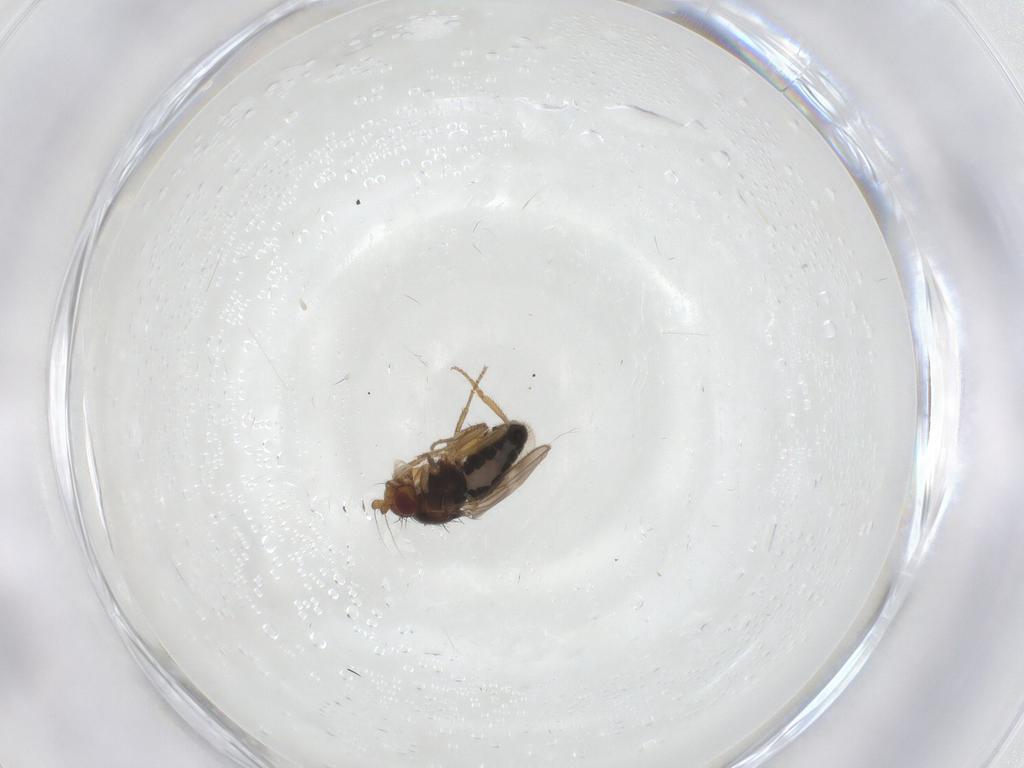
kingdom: Animalia
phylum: Arthropoda
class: Insecta
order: Diptera
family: Sphaeroceridae
